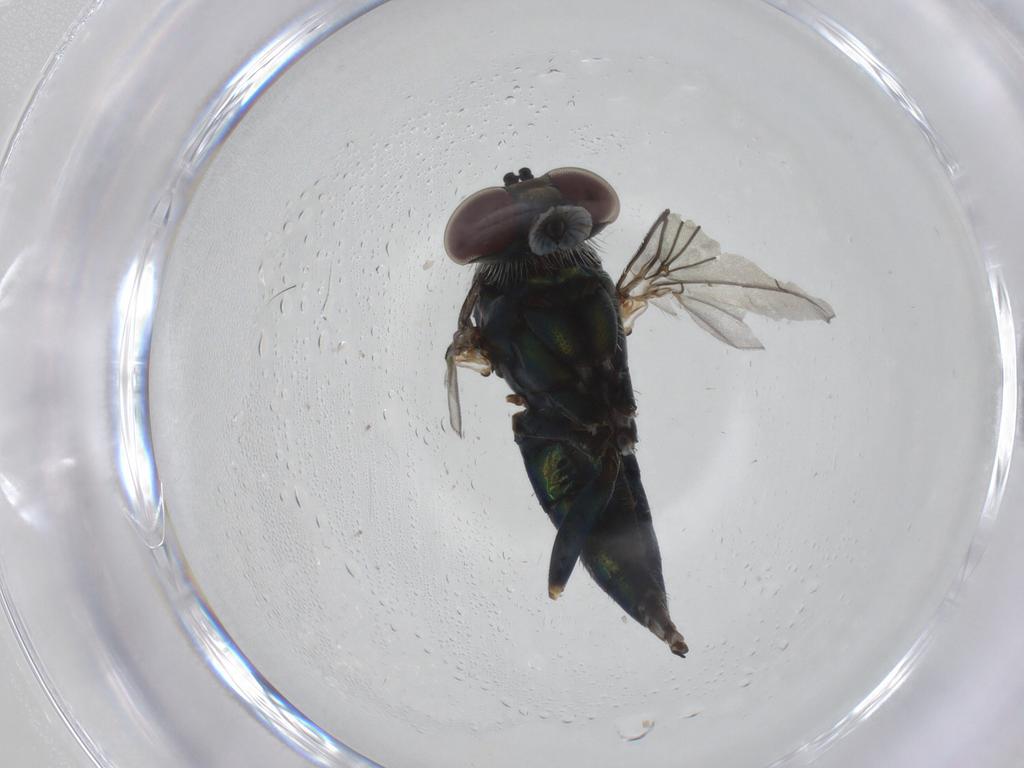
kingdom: Animalia
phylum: Arthropoda
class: Insecta
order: Diptera
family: Dolichopodidae
